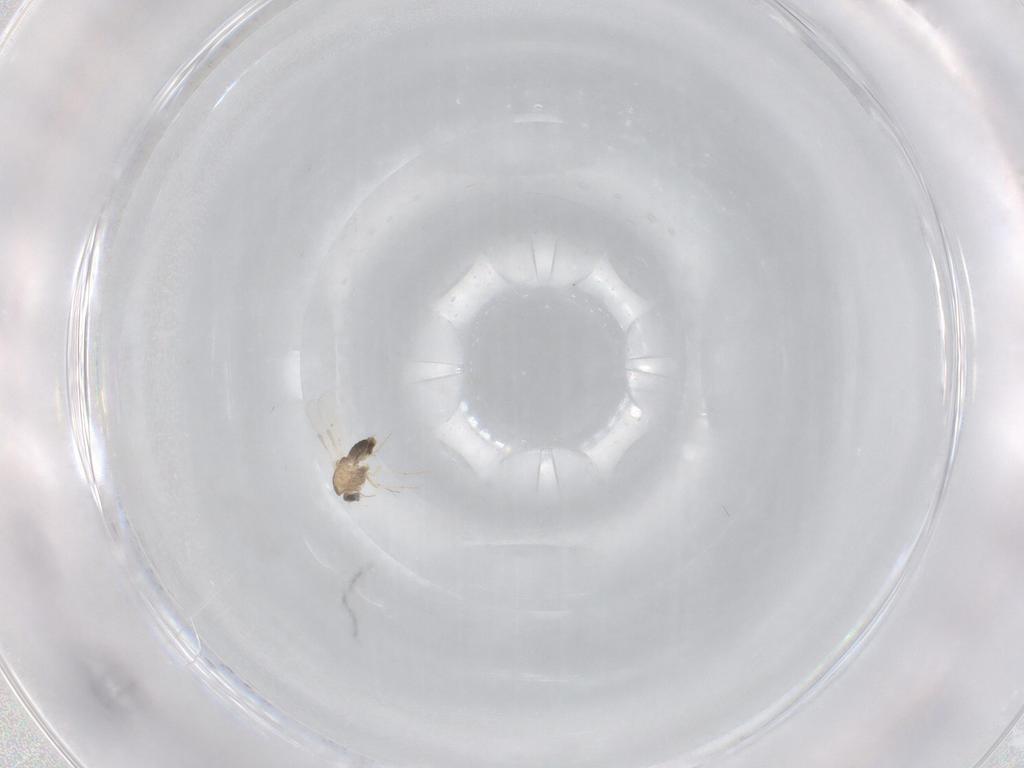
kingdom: Animalia
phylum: Arthropoda
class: Insecta
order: Diptera
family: Chironomidae
